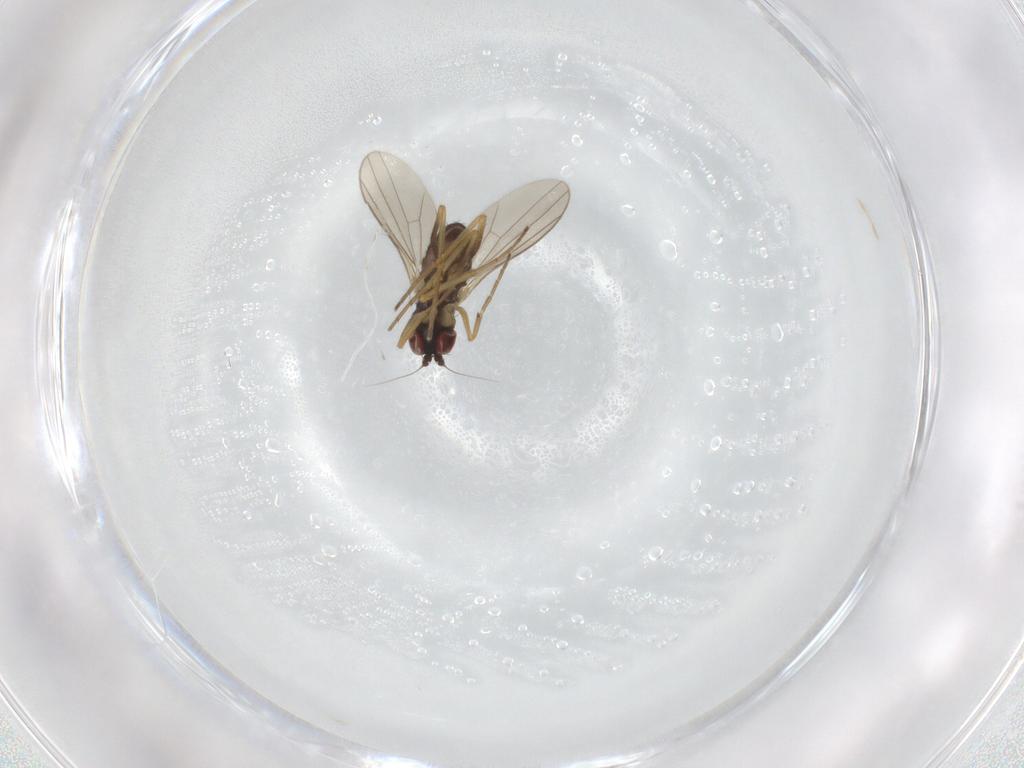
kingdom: Animalia
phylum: Arthropoda
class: Insecta
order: Diptera
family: Dolichopodidae
